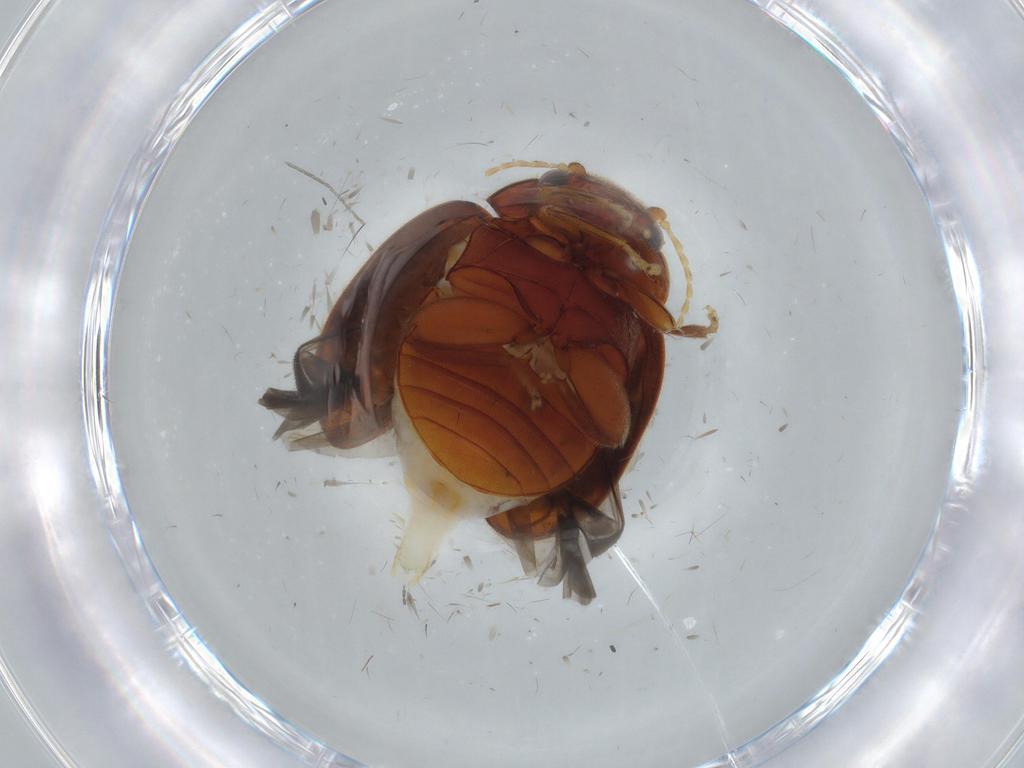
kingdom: Animalia
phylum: Arthropoda
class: Insecta
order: Coleoptera
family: Scirtidae
